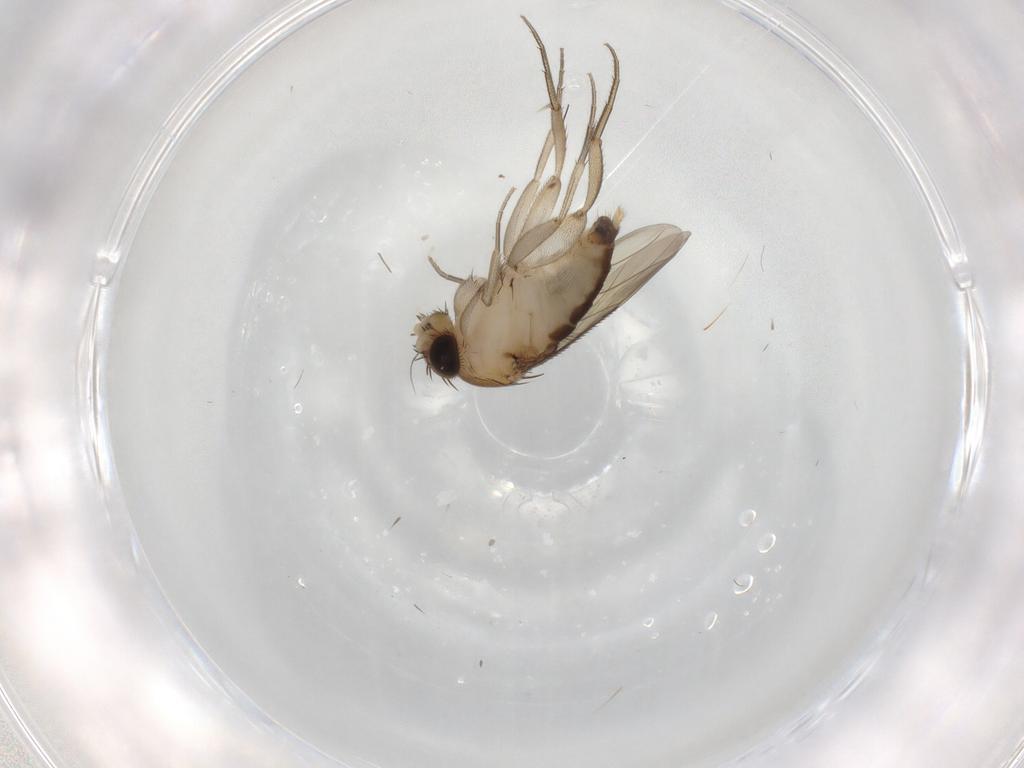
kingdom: Animalia
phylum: Arthropoda
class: Insecta
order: Diptera
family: Phoridae
